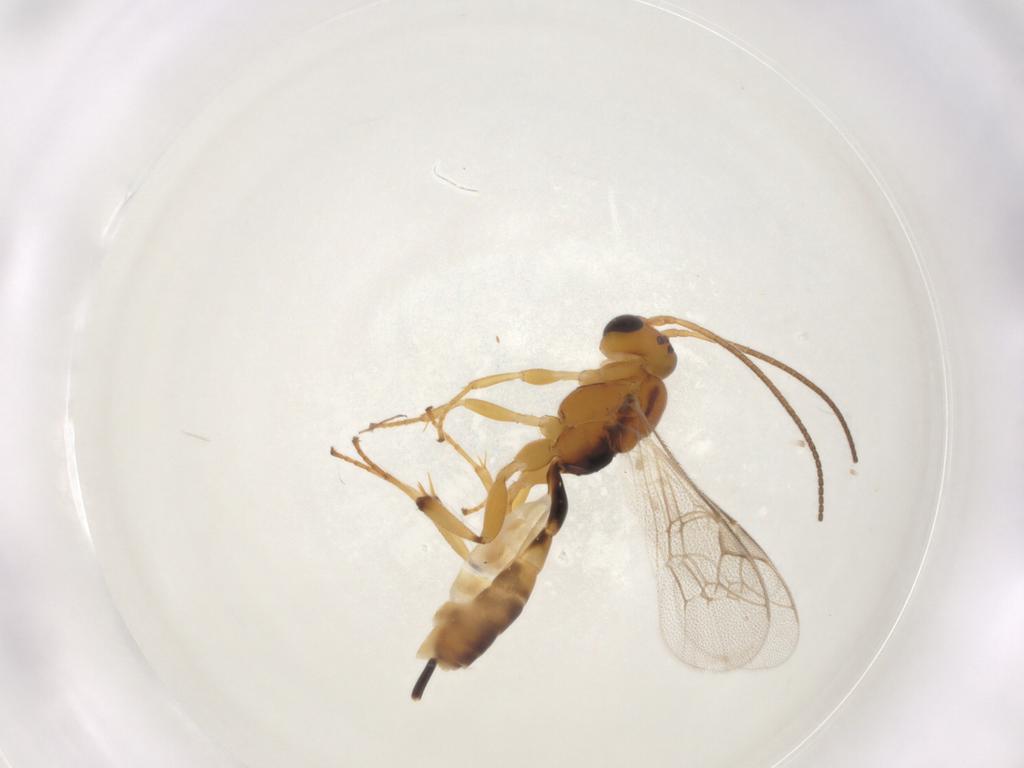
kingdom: Animalia
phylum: Arthropoda
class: Insecta
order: Hymenoptera
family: Ichneumonidae
